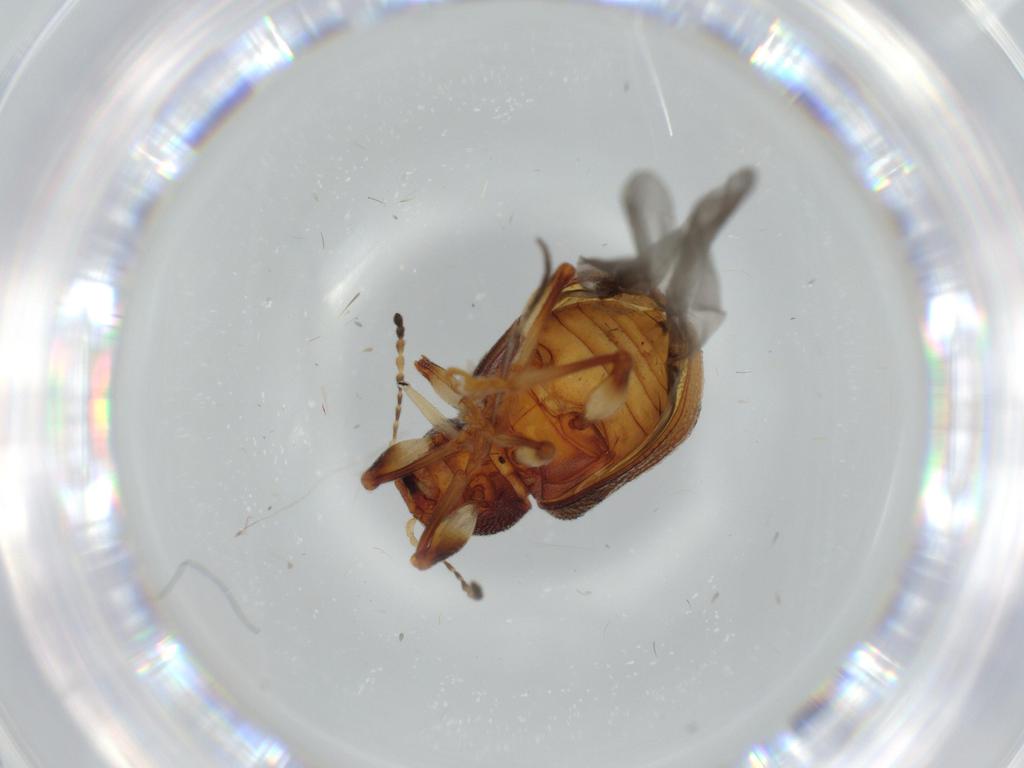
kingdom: Animalia
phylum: Arthropoda
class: Insecta
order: Coleoptera
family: Chrysomelidae
